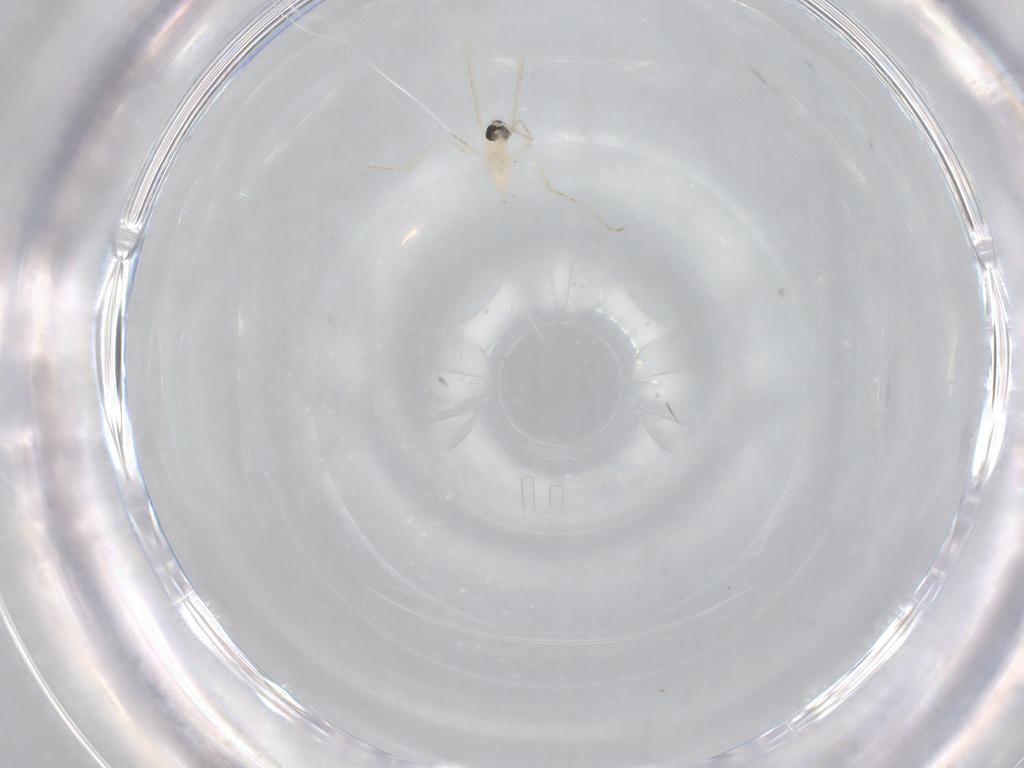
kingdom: Animalia
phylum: Arthropoda
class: Insecta
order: Diptera
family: Cecidomyiidae
